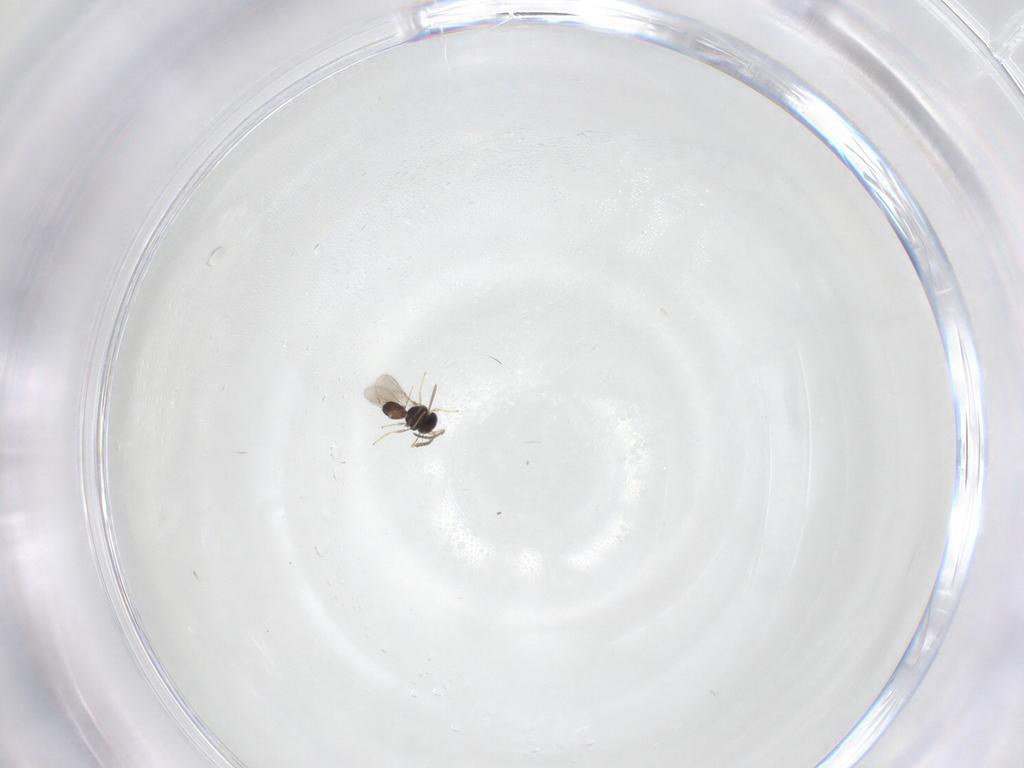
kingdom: Animalia
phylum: Arthropoda
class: Insecta
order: Hymenoptera
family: Scelionidae
